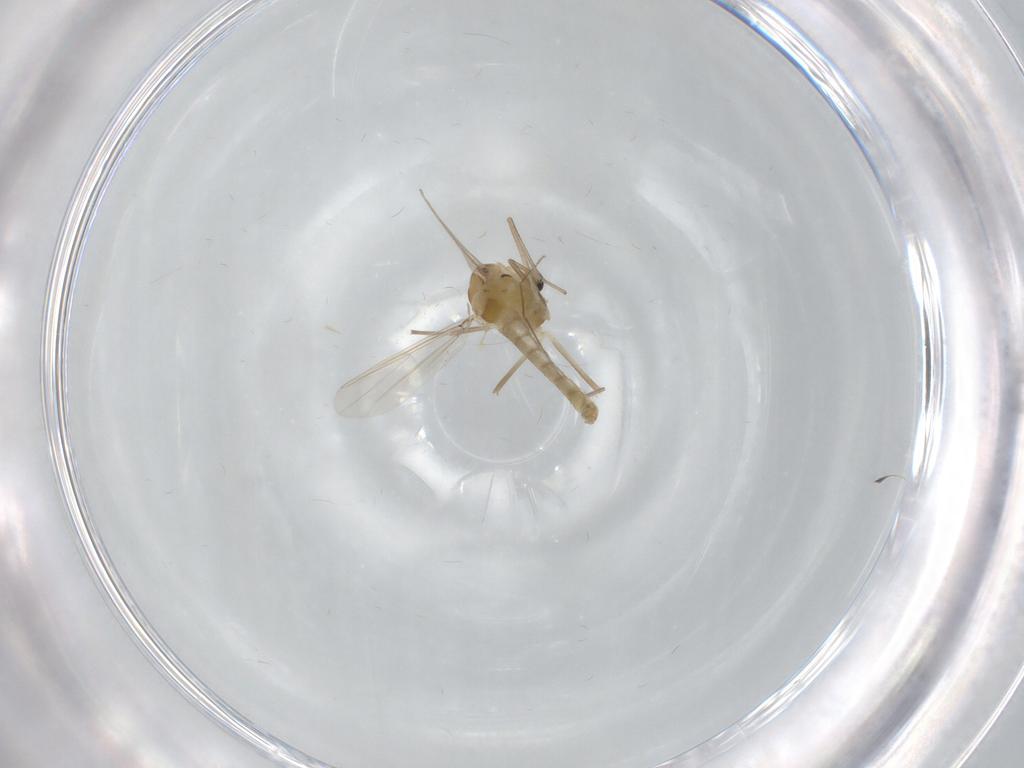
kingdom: Animalia
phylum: Arthropoda
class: Insecta
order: Diptera
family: Chironomidae
